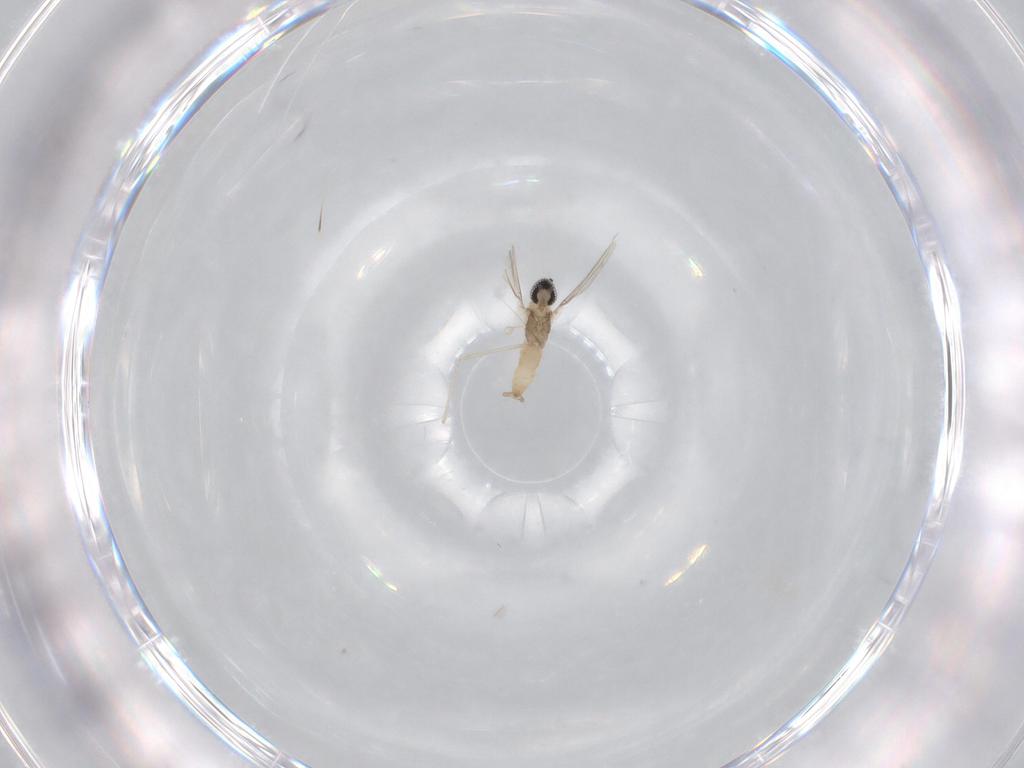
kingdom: Animalia
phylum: Arthropoda
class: Insecta
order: Diptera
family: Cecidomyiidae
